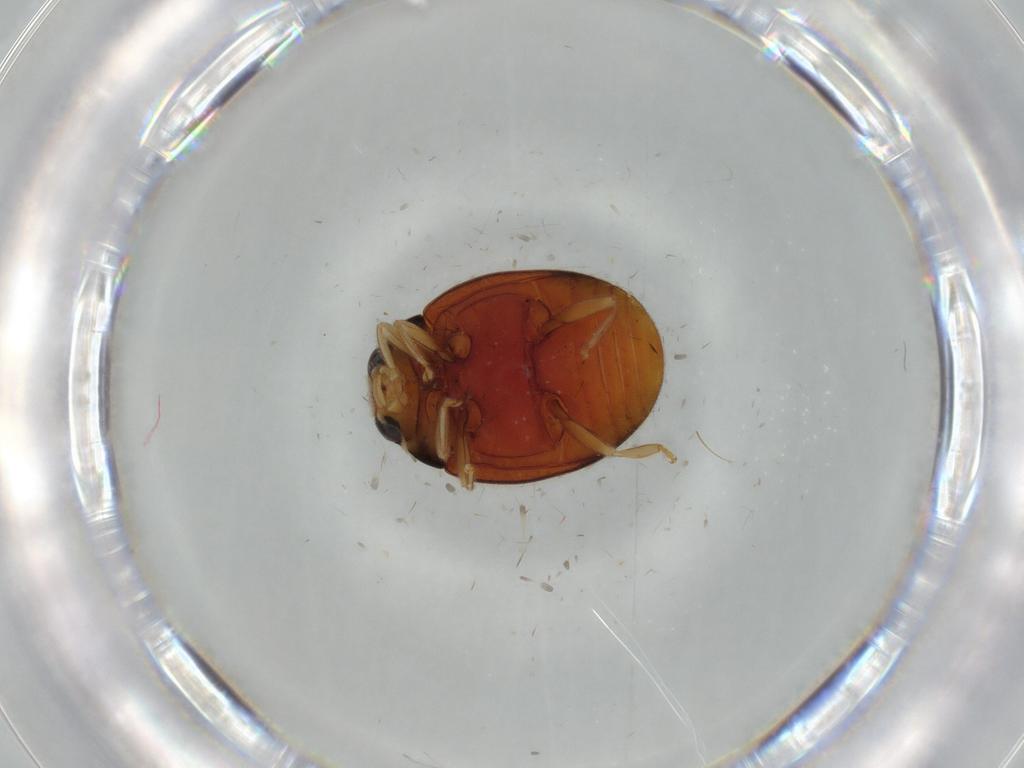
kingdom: Animalia
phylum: Arthropoda
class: Insecta
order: Coleoptera
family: Coccinellidae
